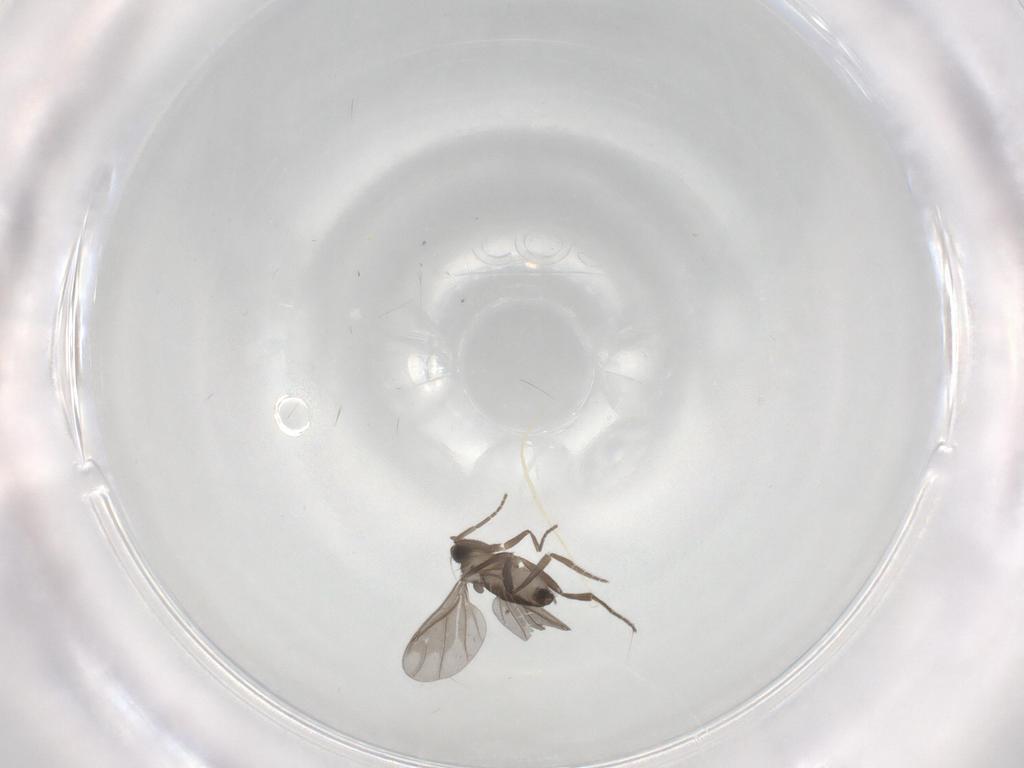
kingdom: Animalia
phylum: Arthropoda
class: Insecta
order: Diptera
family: Phoridae
